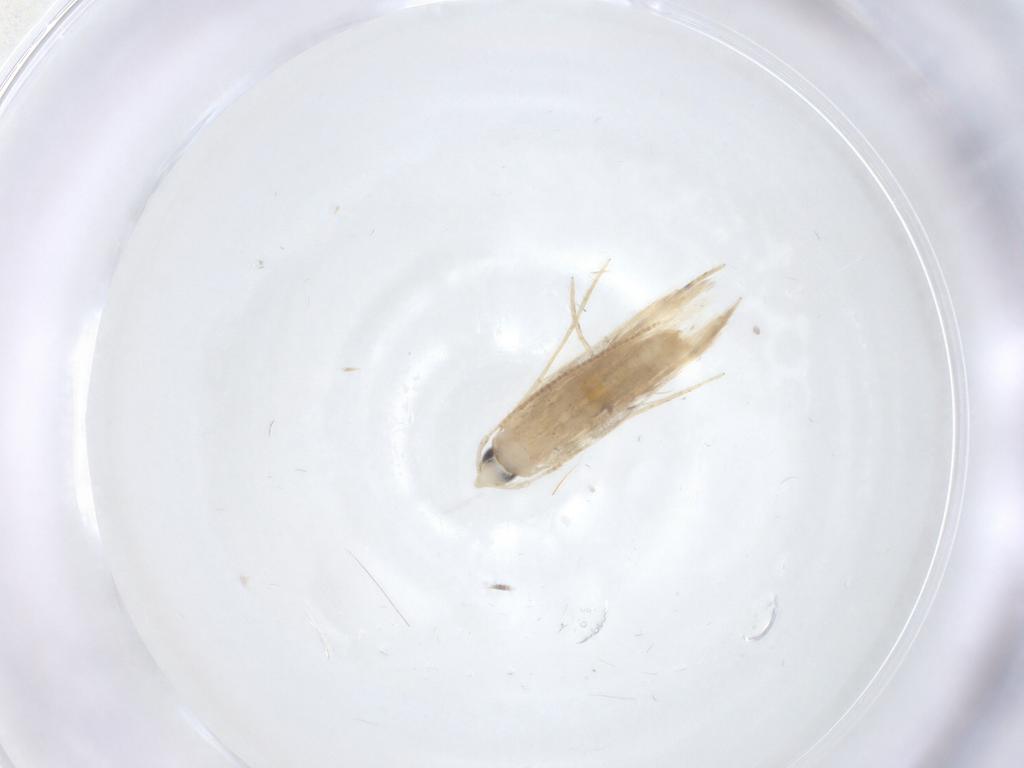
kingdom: Animalia
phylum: Arthropoda
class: Insecta
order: Lepidoptera
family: Tineidae
